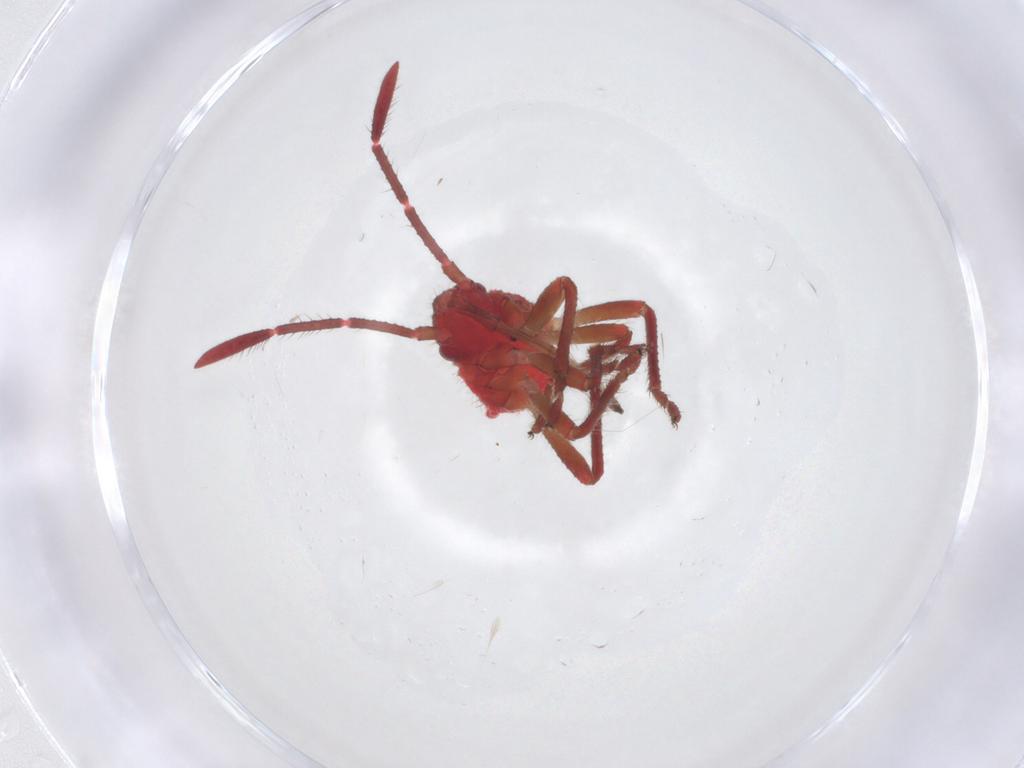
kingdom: Animalia
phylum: Arthropoda
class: Insecta
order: Hemiptera
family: Rhopalidae
